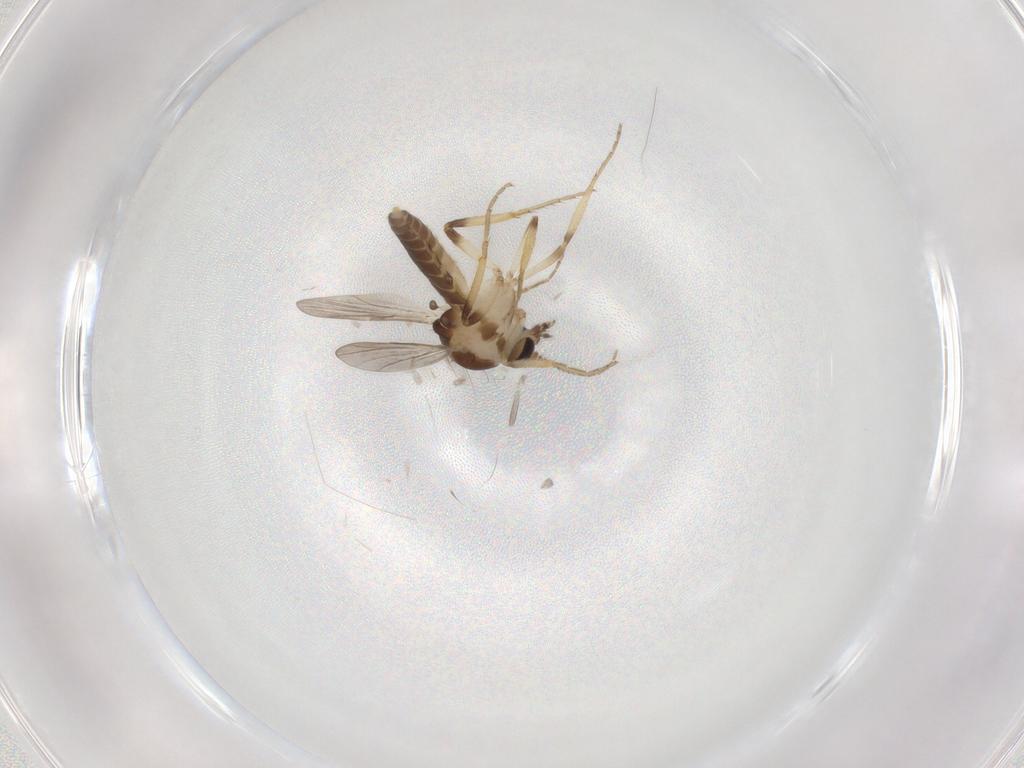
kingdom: Animalia
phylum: Arthropoda
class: Insecta
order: Diptera
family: Ceratopogonidae
